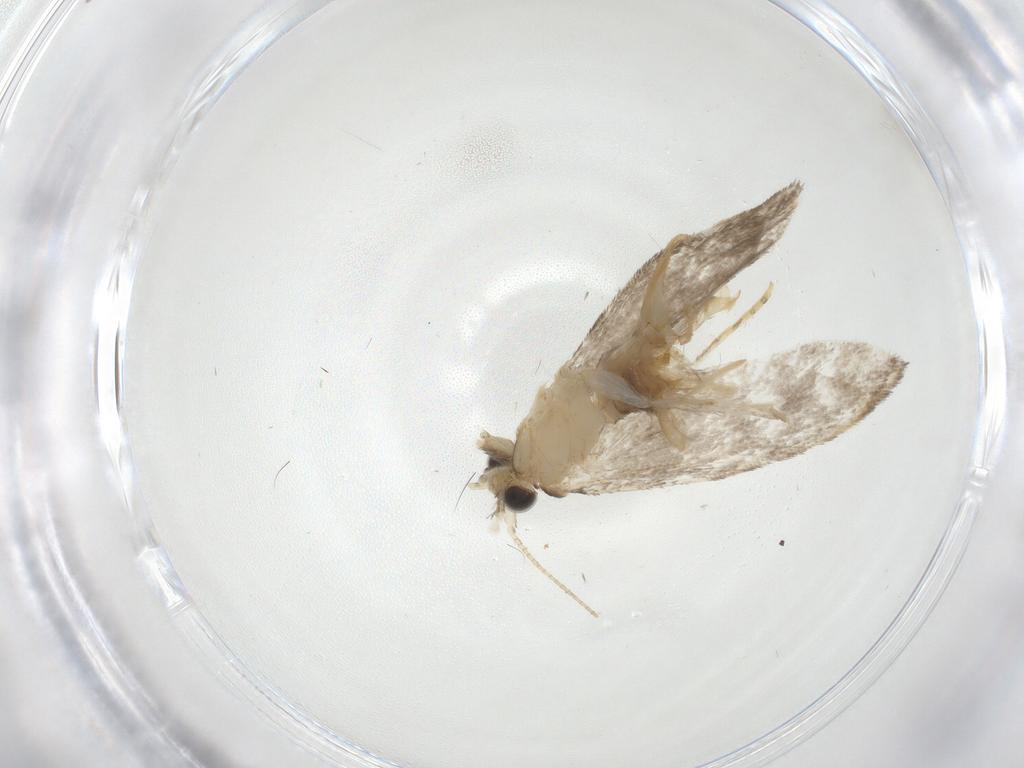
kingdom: Animalia
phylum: Arthropoda
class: Insecta
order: Lepidoptera
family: Tineidae
